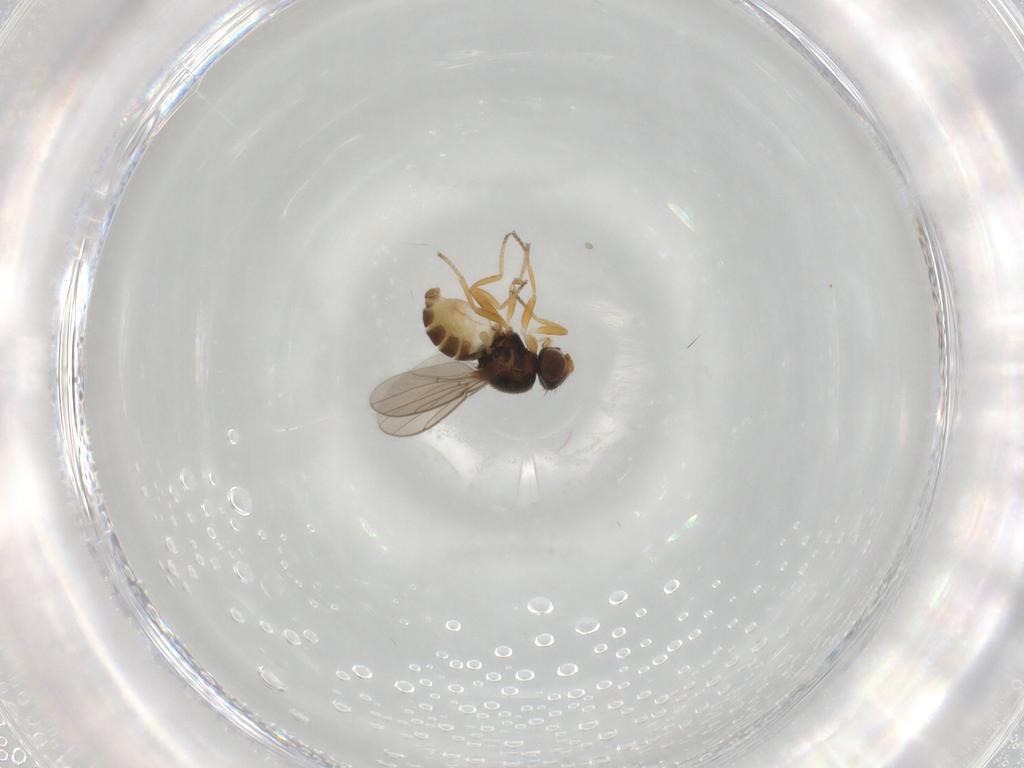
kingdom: Animalia
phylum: Arthropoda
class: Insecta
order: Diptera
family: Chloropidae
